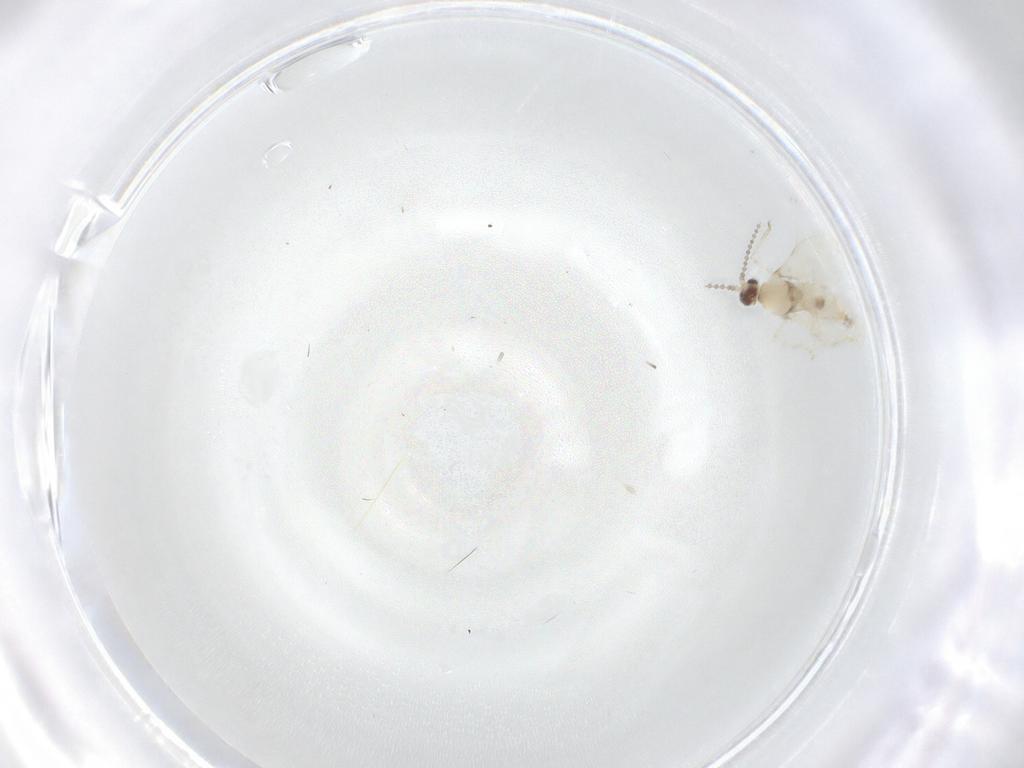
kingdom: Animalia
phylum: Arthropoda
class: Insecta
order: Diptera
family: Cecidomyiidae
